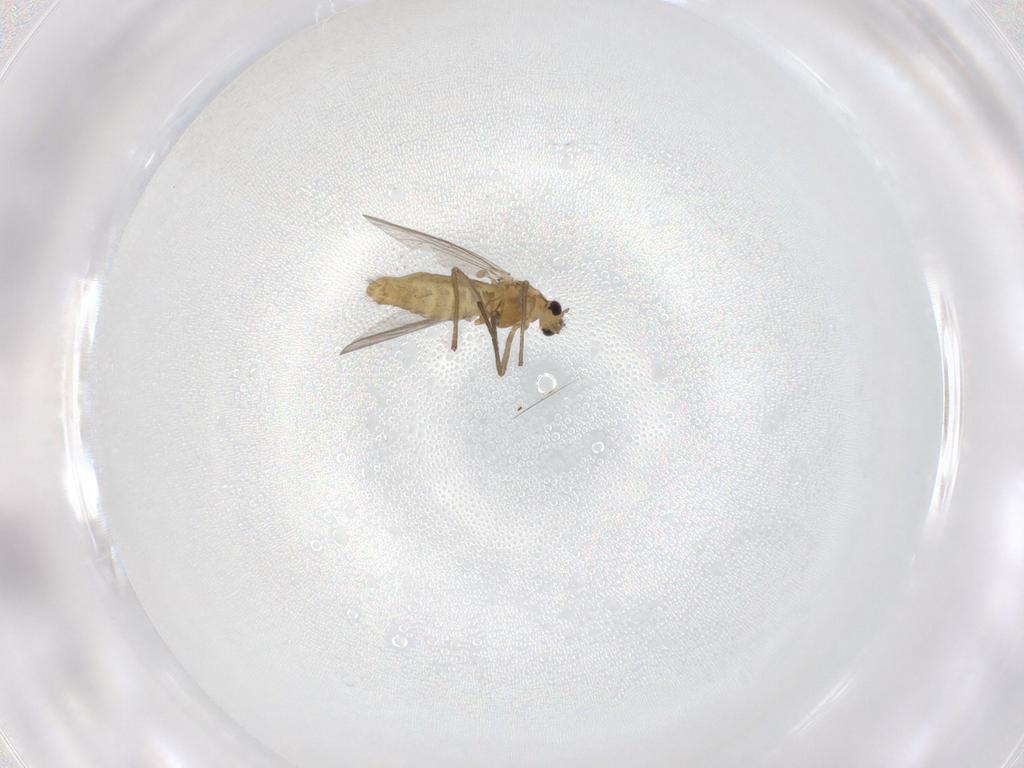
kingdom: Animalia
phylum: Arthropoda
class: Insecta
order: Diptera
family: Chironomidae
